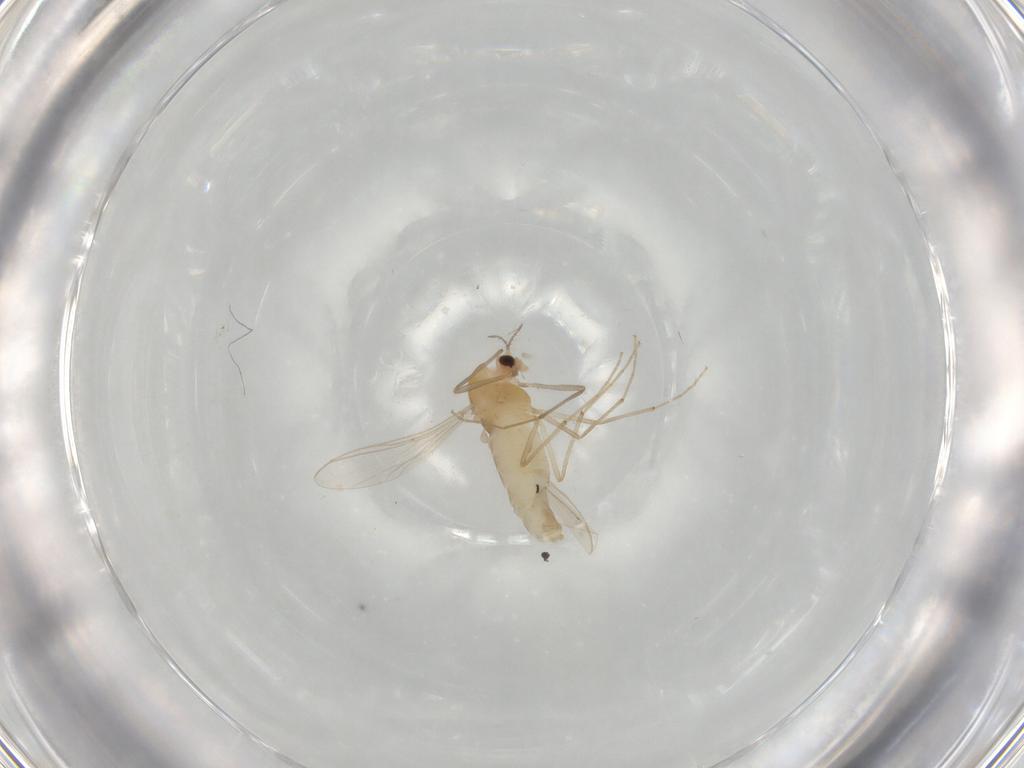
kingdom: Animalia
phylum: Arthropoda
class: Insecta
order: Diptera
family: Chironomidae
